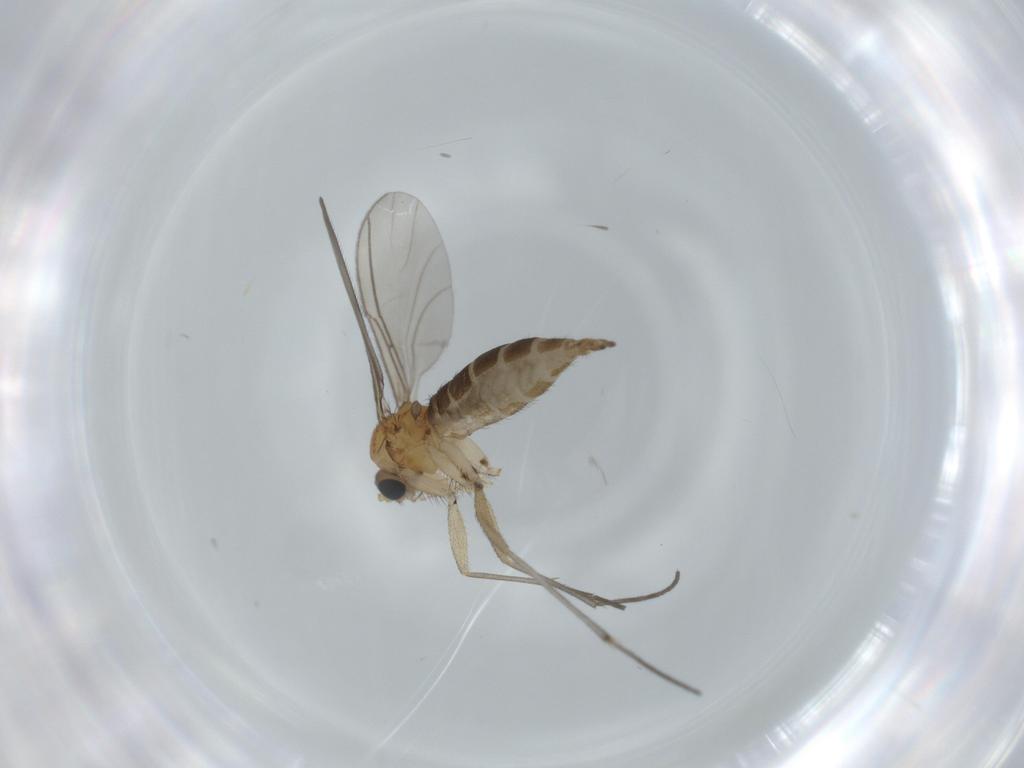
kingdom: Animalia
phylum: Arthropoda
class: Insecta
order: Diptera
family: Sciaridae
